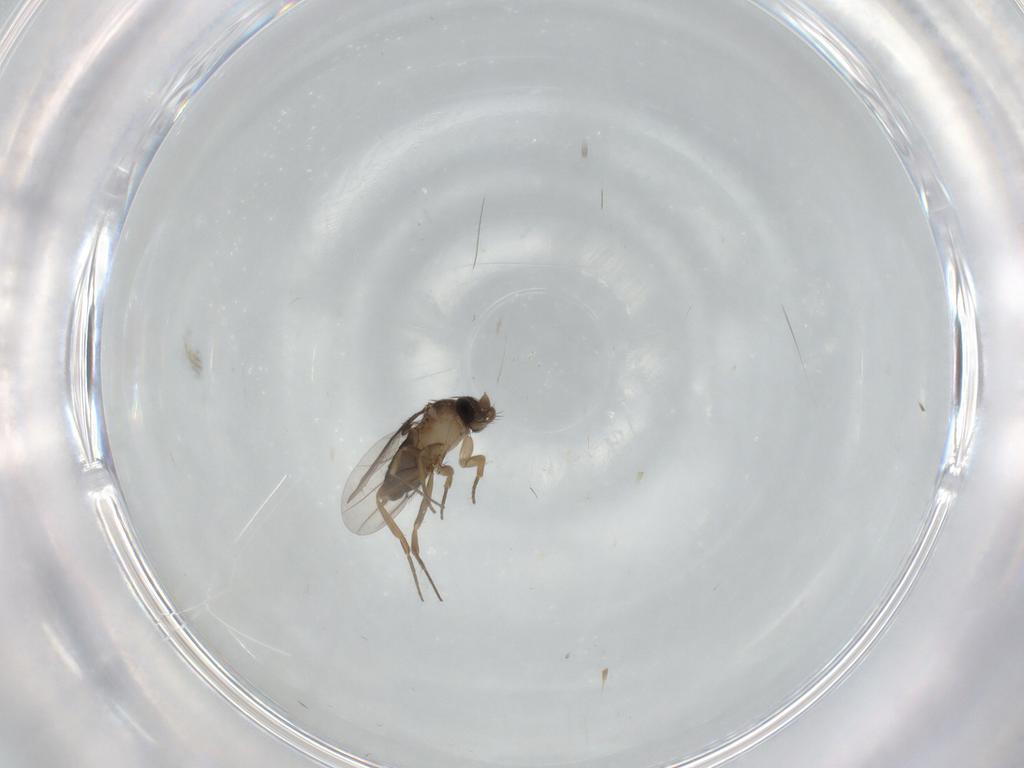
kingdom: Animalia
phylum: Arthropoda
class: Insecta
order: Diptera
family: Phoridae
